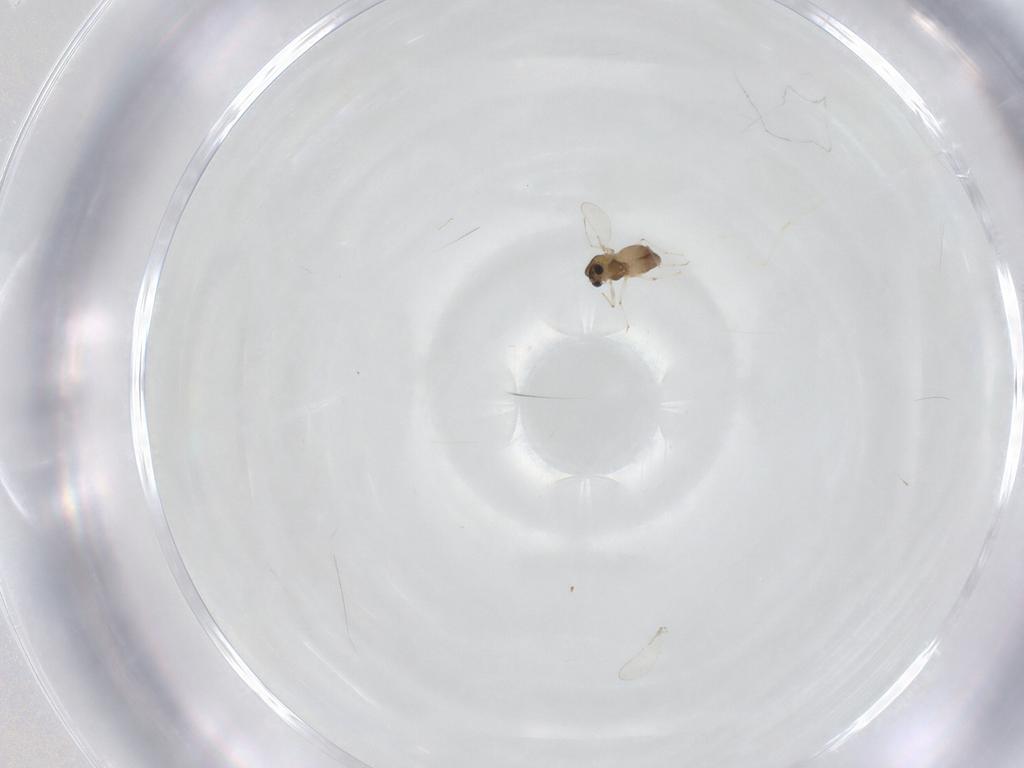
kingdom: Animalia
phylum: Arthropoda
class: Insecta
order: Diptera
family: Chironomidae
